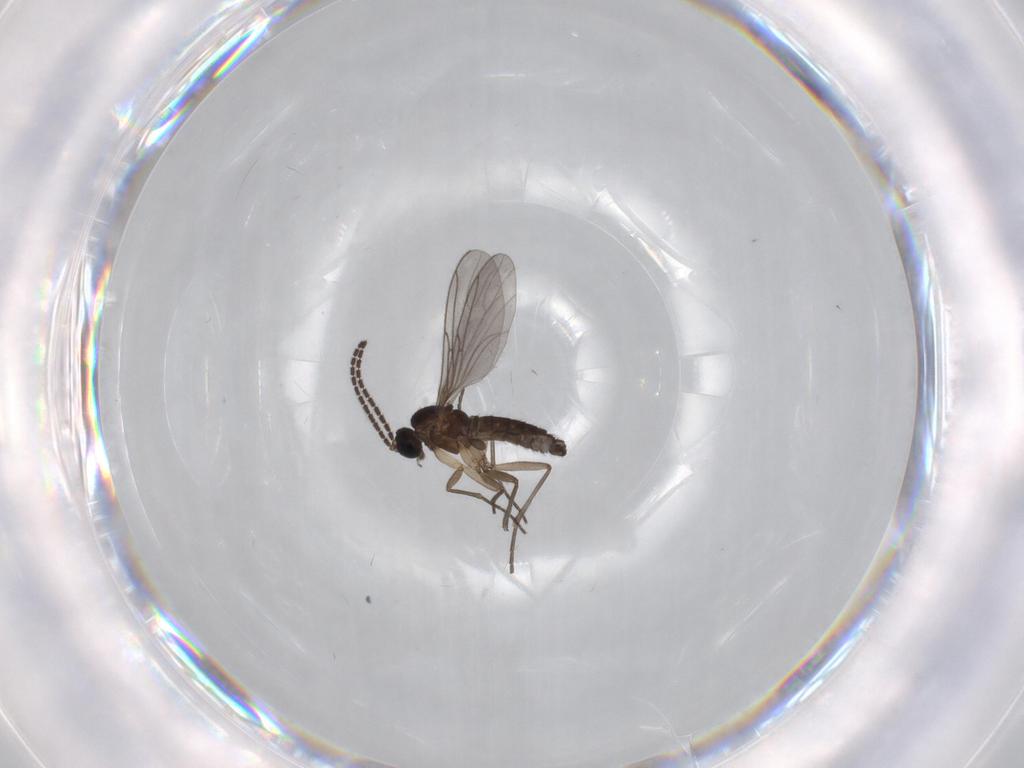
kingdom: Animalia
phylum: Arthropoda
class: Insecta
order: Diptera
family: Sciaridae
